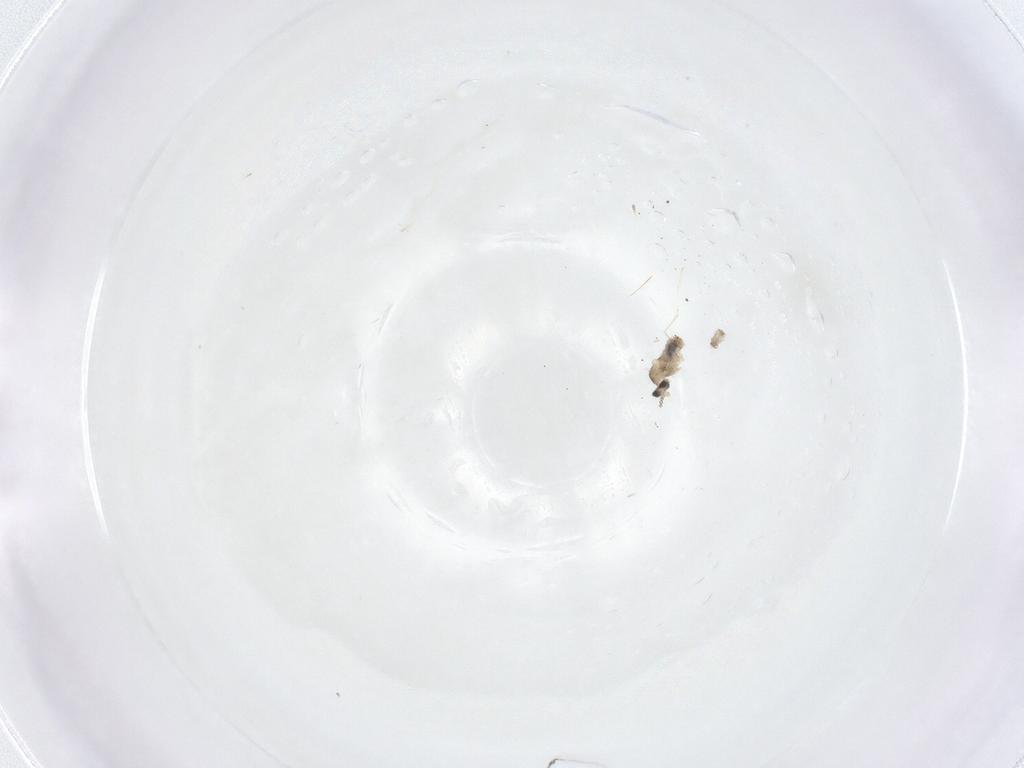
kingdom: Animalia
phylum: Arthropoda
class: Insecta
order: Diptera
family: Cecidomyiidae
